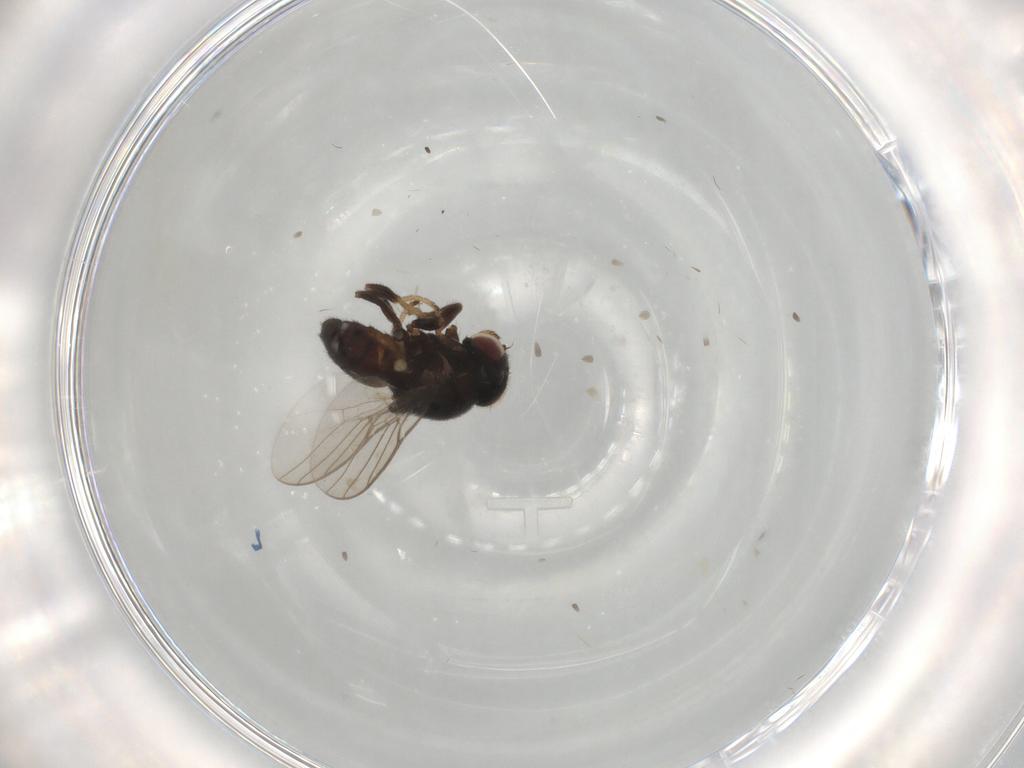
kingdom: Animalia
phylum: Arthropoda
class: Insecta
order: Diptera
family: Chloropidae
